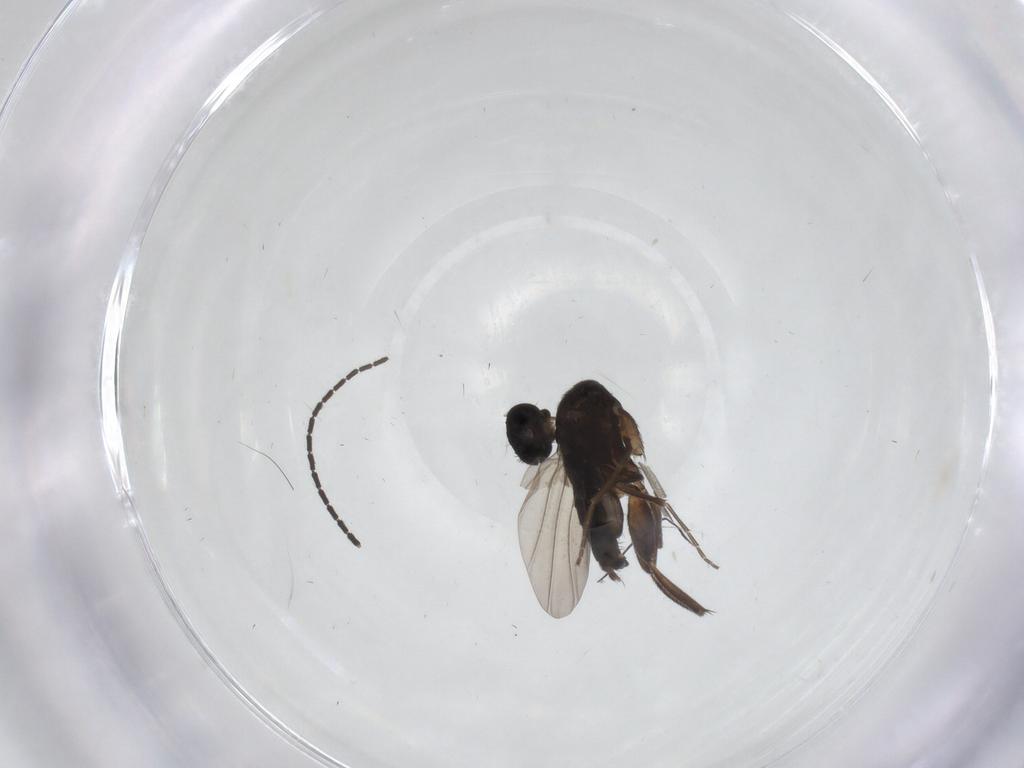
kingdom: Animalia
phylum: Arthropoda
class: Insecta
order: Diptera
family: Phoridae
